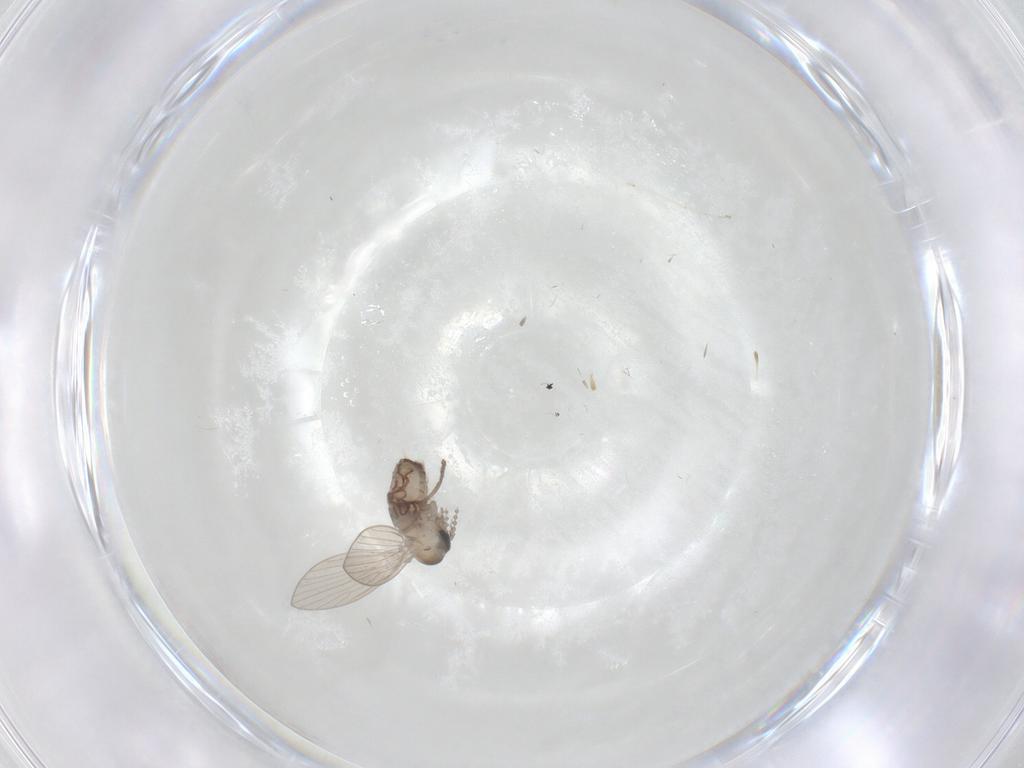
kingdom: Animalia
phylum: Arthropoda
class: Insecta
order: Diptera
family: Psychodidae
